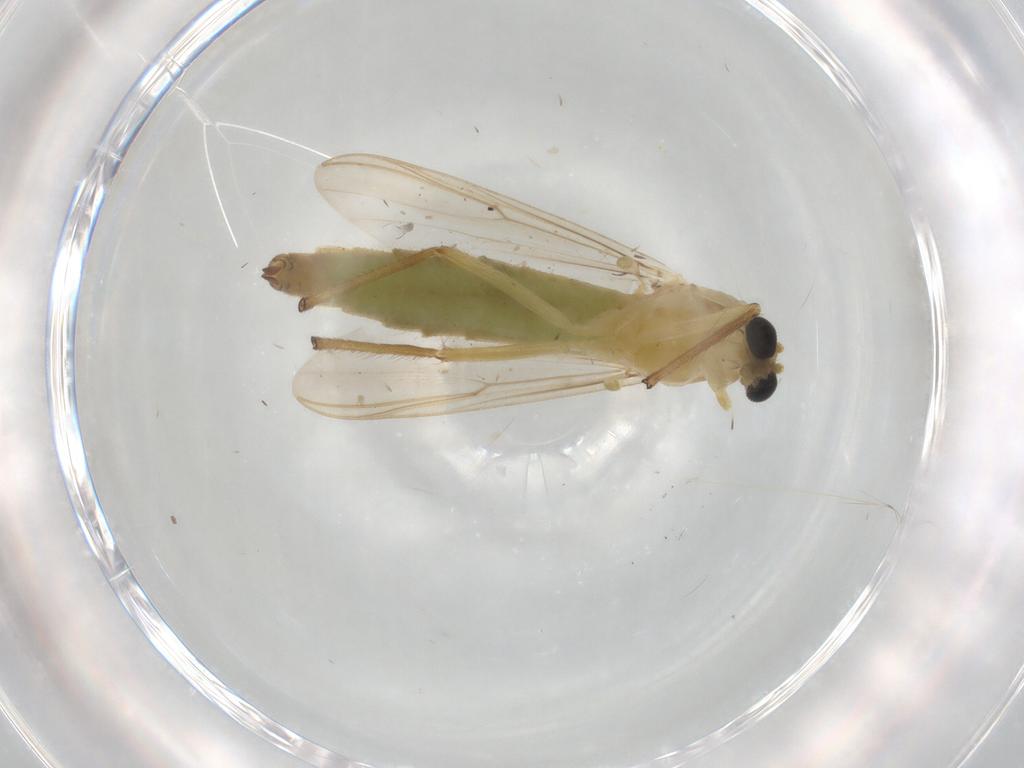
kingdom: Animalia
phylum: Arthropoda
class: Insecta
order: Diptera
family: Chironomidae
